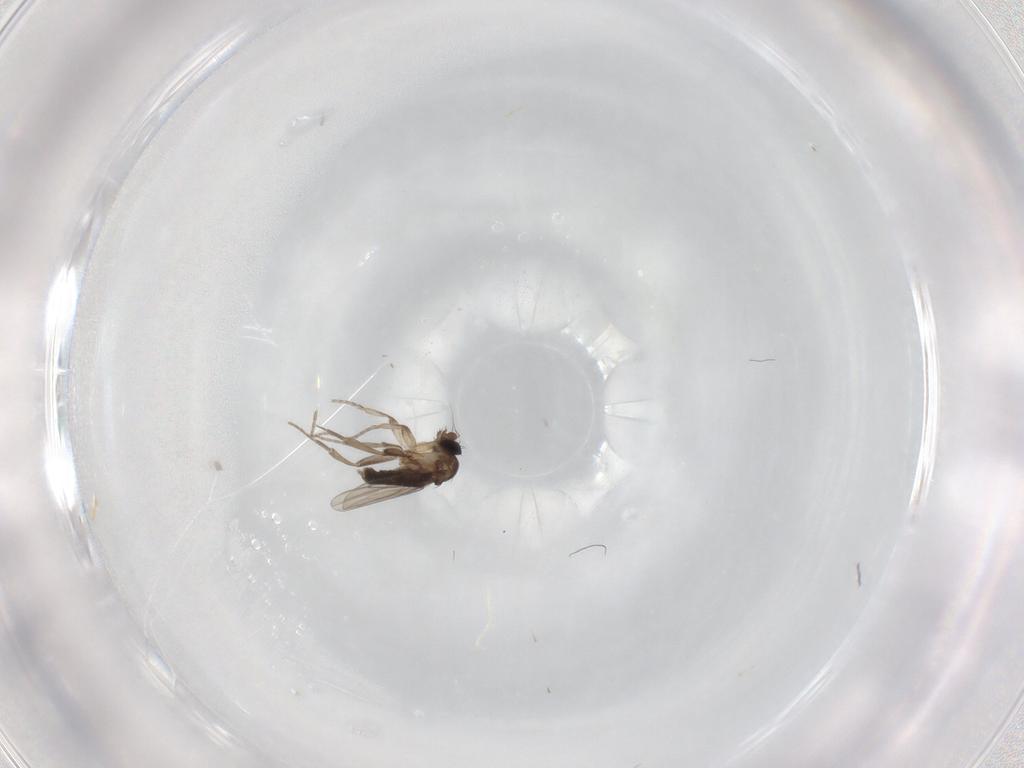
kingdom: Animalia
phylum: Arthropoda
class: Insecta
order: Diptera
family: Phoridae
